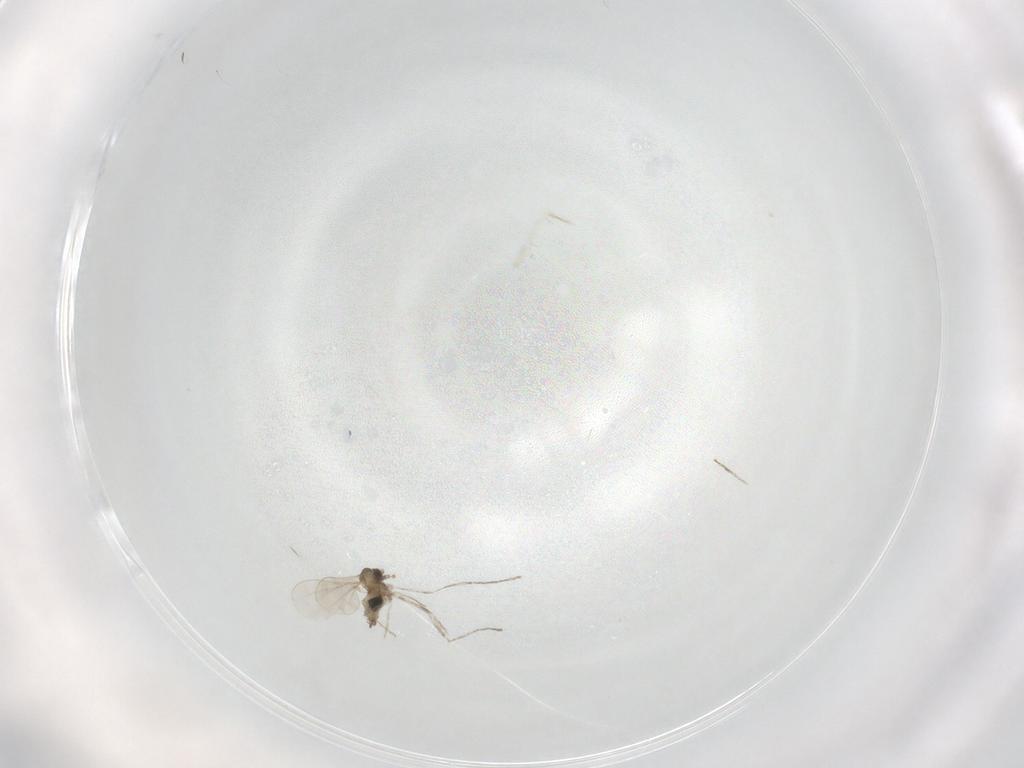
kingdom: Animalia
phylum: Arthropoda
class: Insecta
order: Diptera
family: Cecidomyiidae
